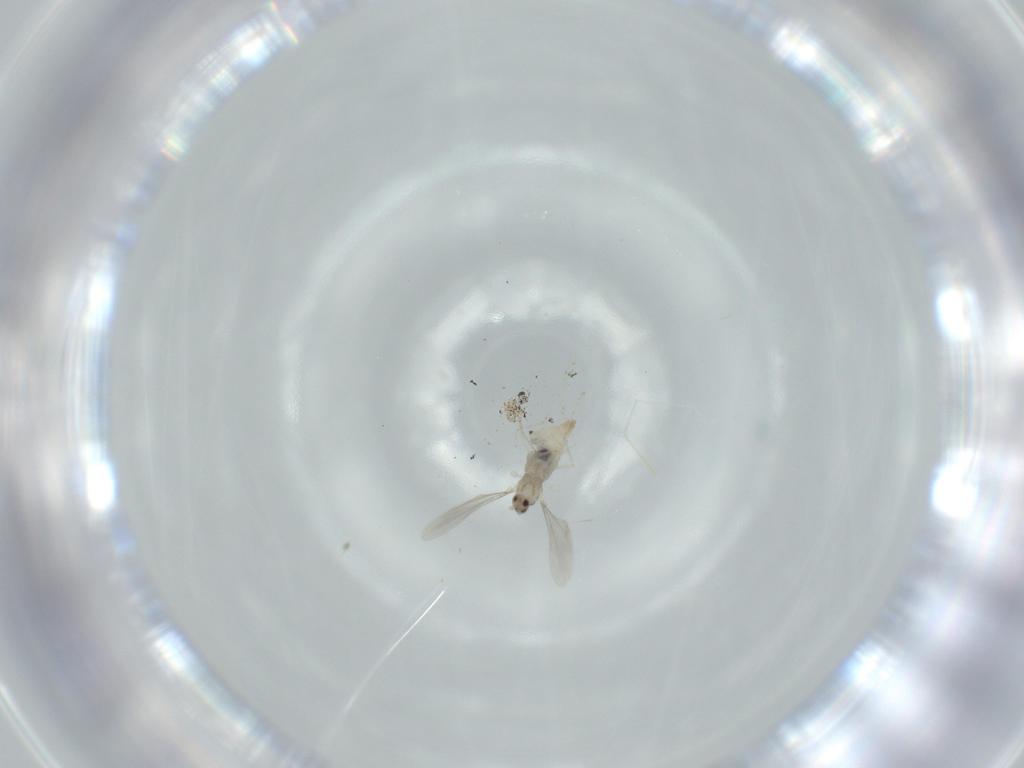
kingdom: Animalia
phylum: Arthropoda
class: Insecta
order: Diptera
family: Cecidomyiidae
